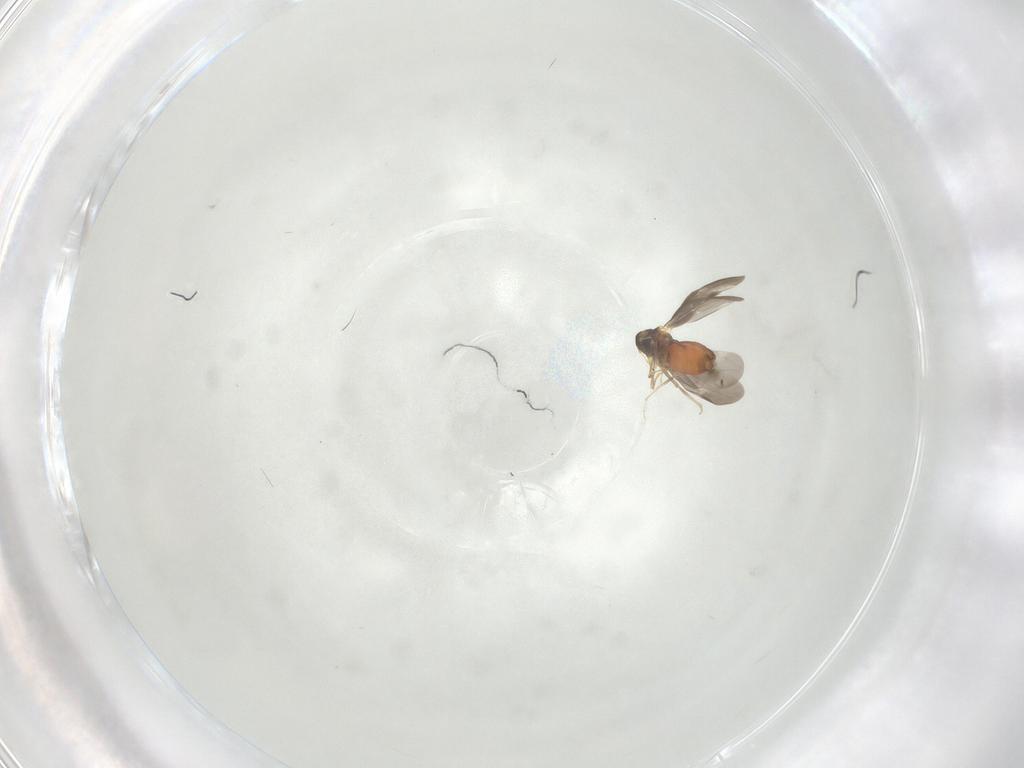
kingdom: Animalia
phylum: Arthropoda
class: Insecta
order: Hemiptera
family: Aleyrodidae
